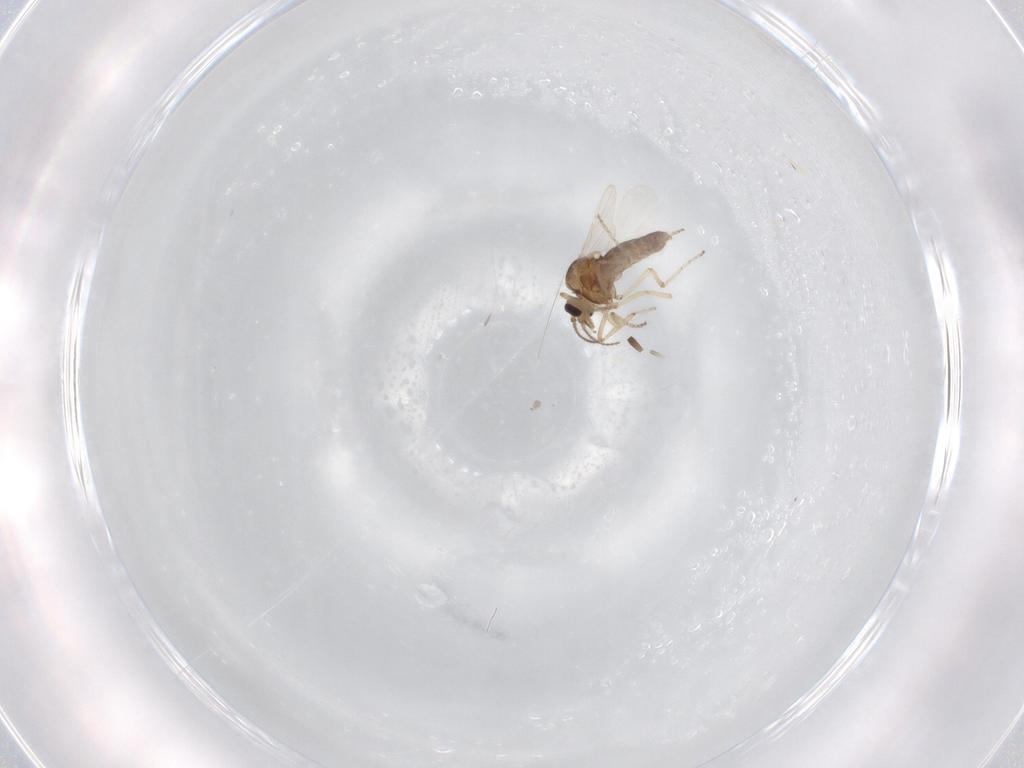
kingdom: Animalia
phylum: Arthropoda
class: Insecta
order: Diptera
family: Ceratopogonidae
